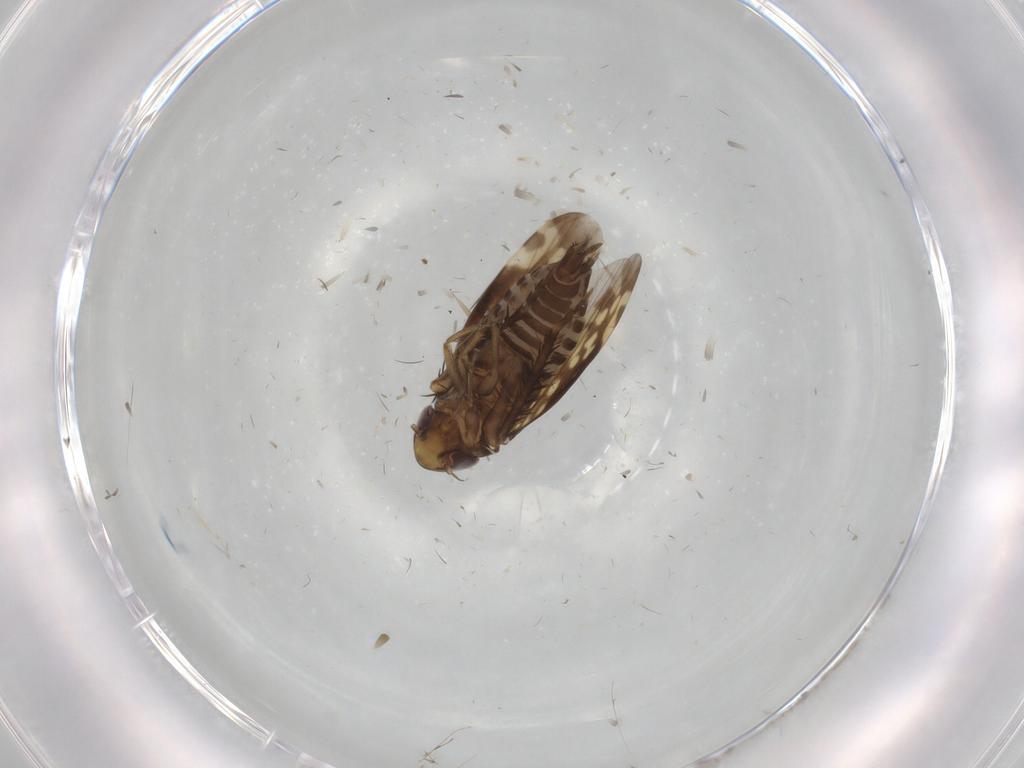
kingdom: Animalia
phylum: Arthropoda
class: Insecta
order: Hemiptera
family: Cicadellidae
